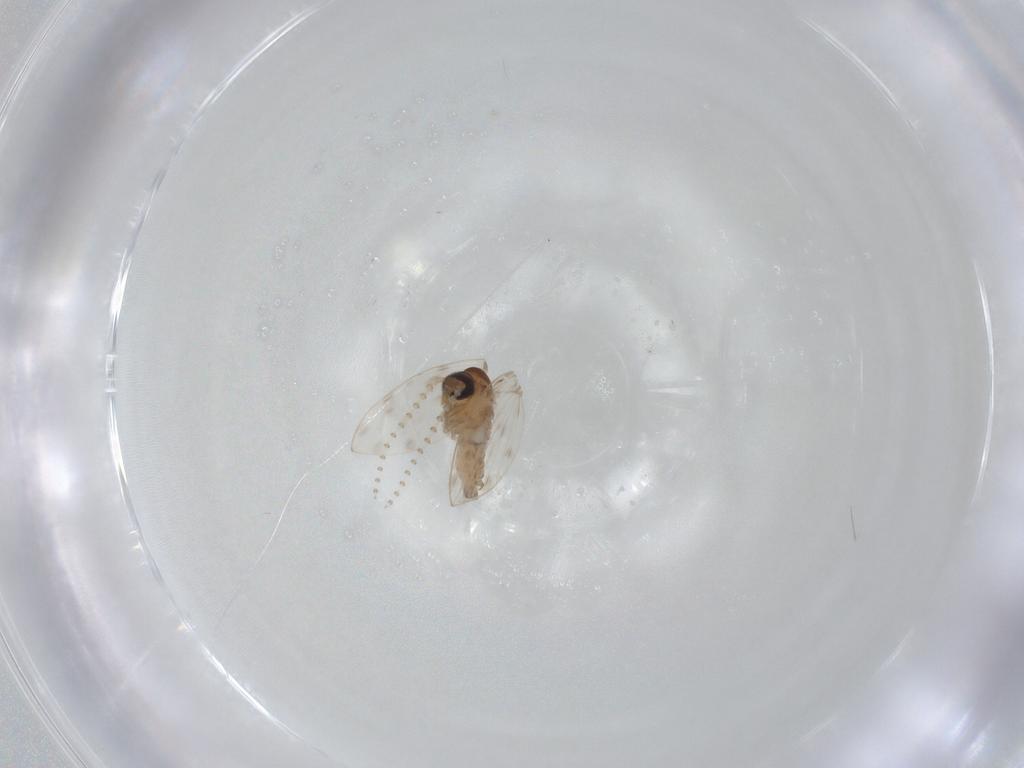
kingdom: Animalia
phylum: Arthropoda
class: Insecta
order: Diptera
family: Psychodidae
